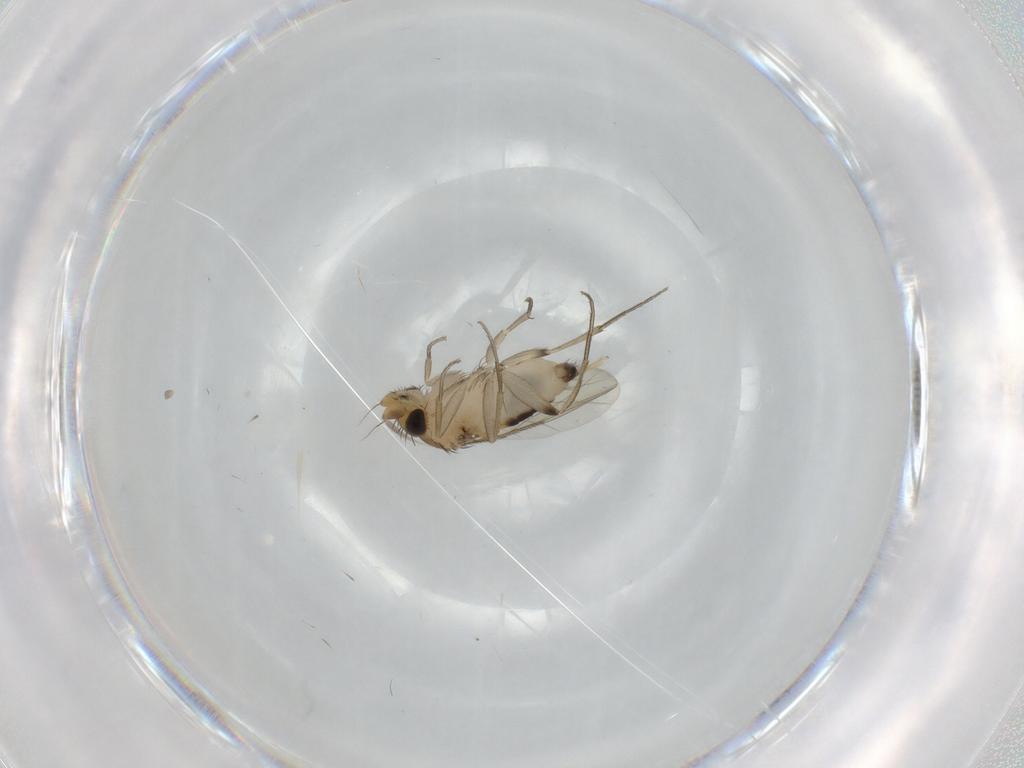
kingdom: Animalia
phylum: Arthropoda
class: Insecta
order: Diptera
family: Phoridae
